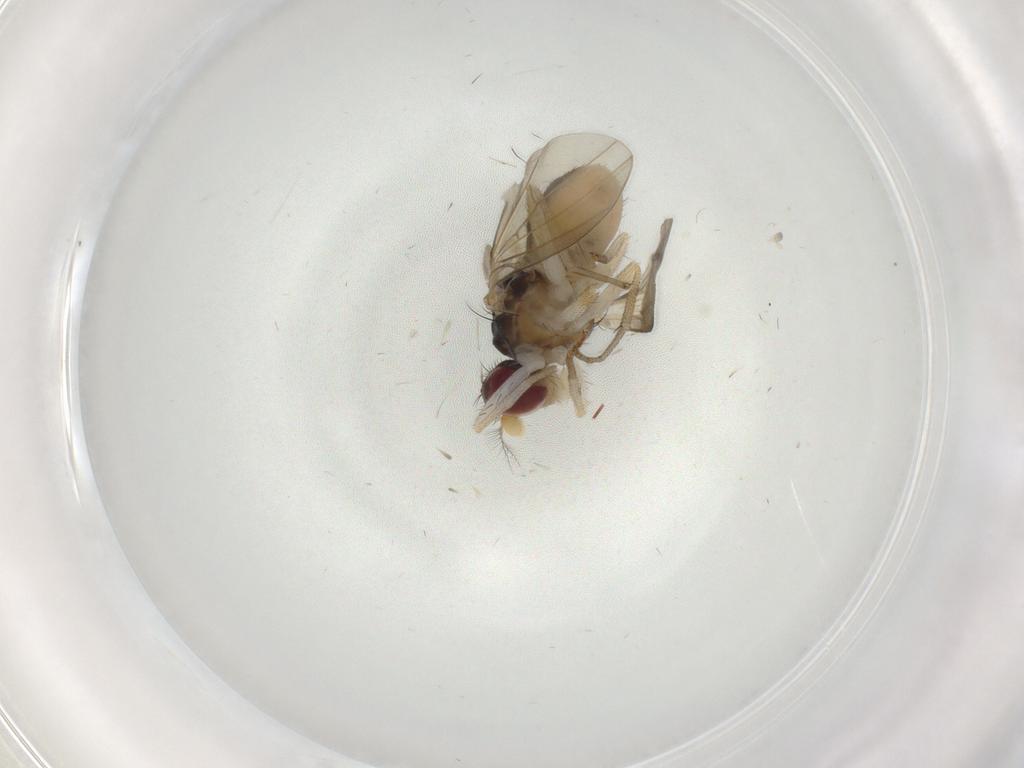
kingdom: Animalia
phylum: Arthropoda
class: Insecta
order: Diptera
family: Lauxaniidae
